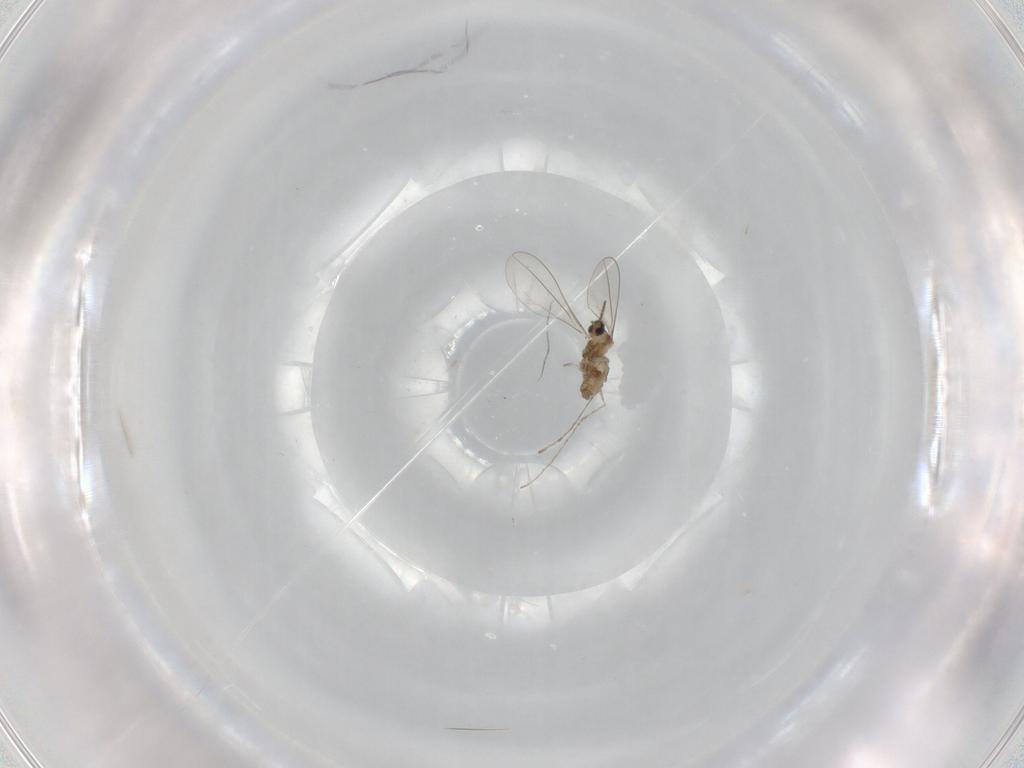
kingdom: Animalia
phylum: Arthropoda
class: Insecta
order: Diptera
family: Cecidomyiidae
